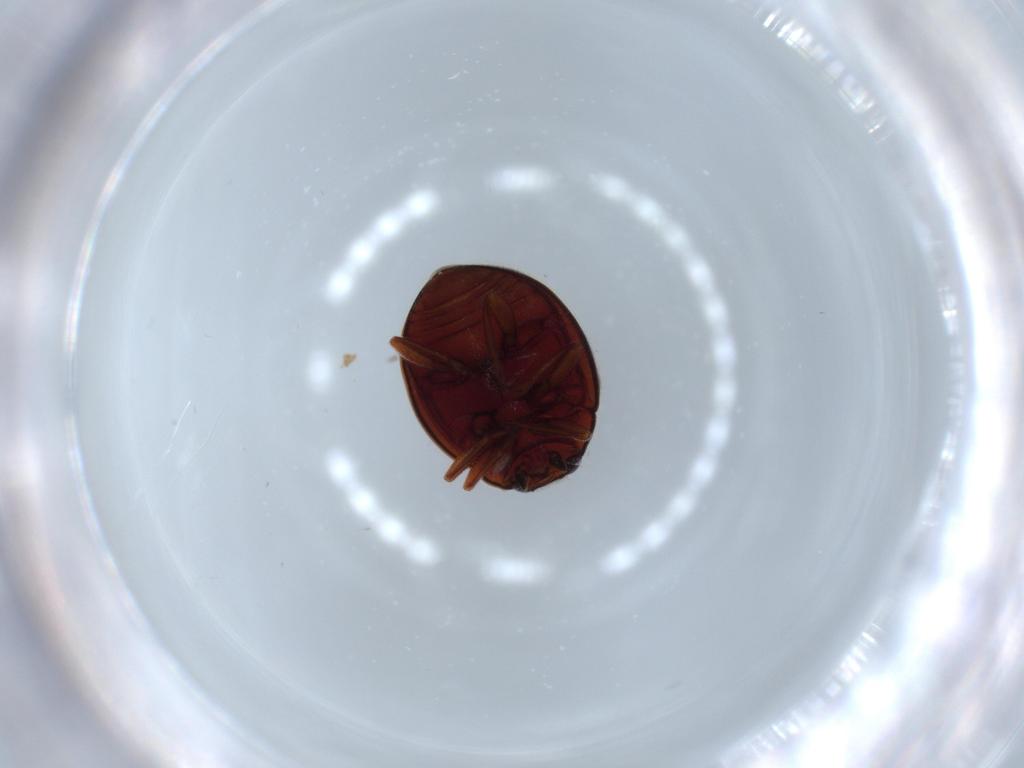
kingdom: Animalia
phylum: Arthropoda
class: Insecta
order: Coleoptera
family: Coccinellidae
